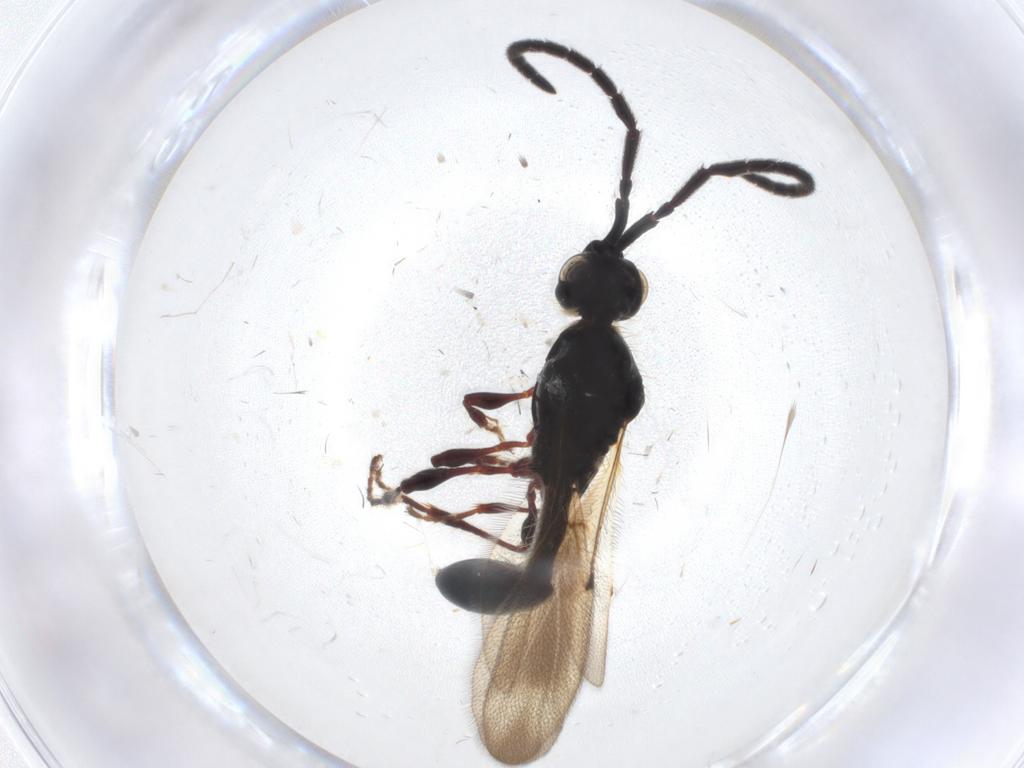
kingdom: Animalia
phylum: Arthropoda
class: Insecta
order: Hymenoptera
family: Diapriidae
